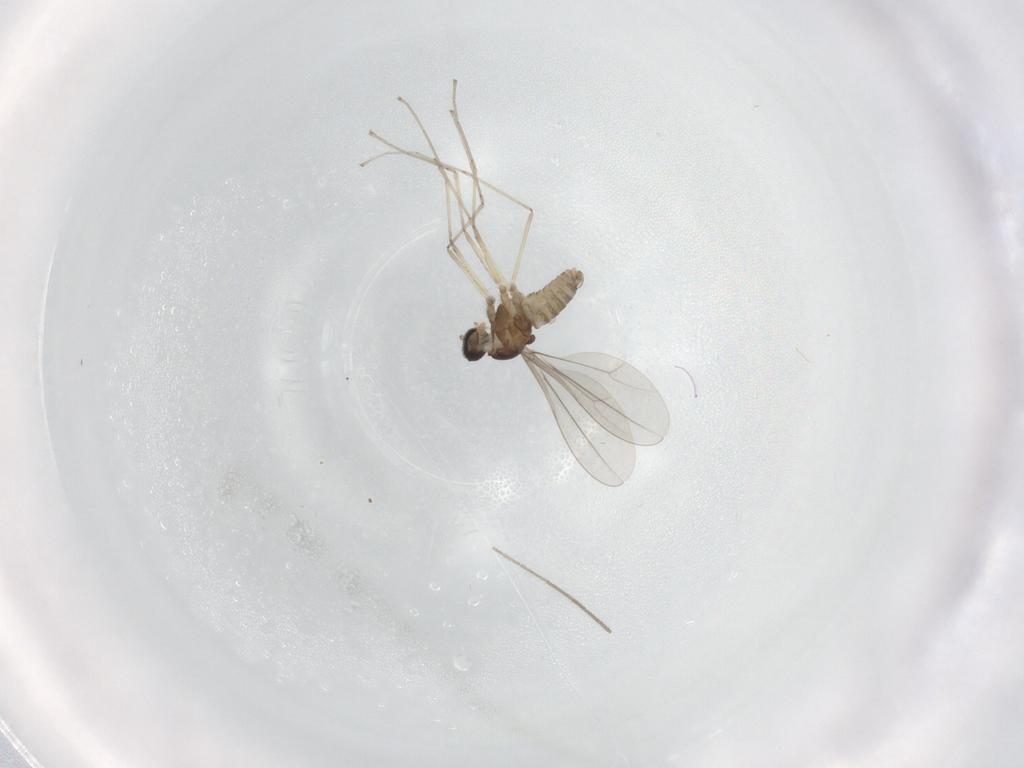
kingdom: Animalia
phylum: Arthropoda
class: Insecta
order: Diptera
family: Cecidomyiidae
